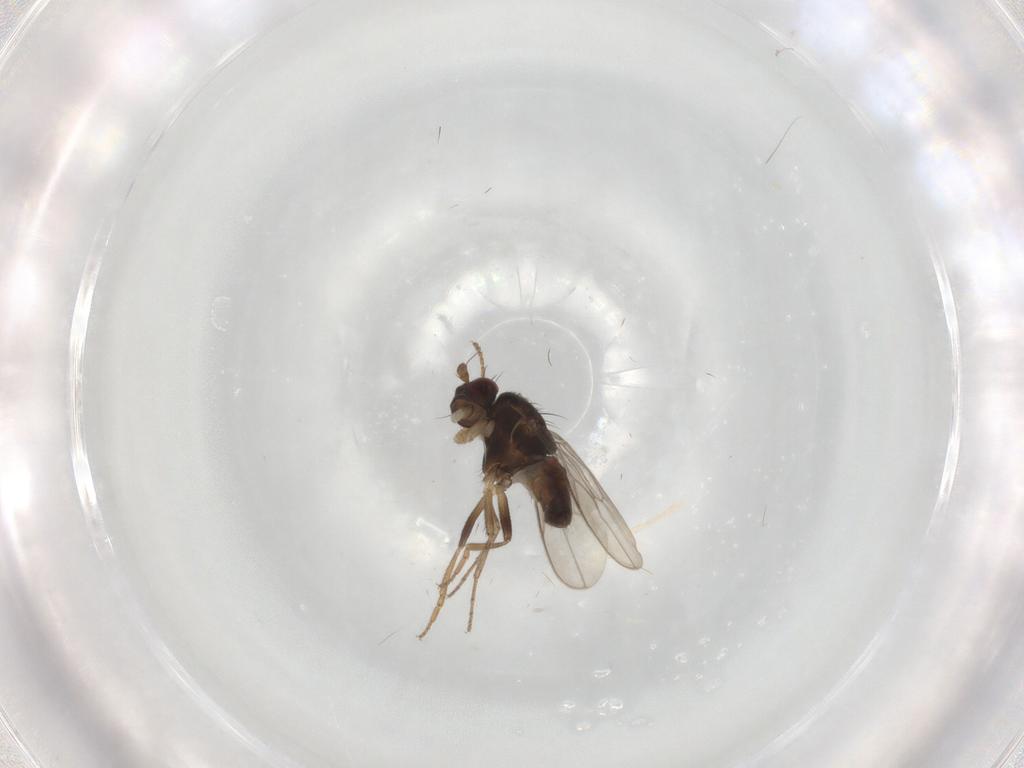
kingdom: Animalia
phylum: Arthropoda
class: Insecta
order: Diptera
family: Sphaeroceridae
